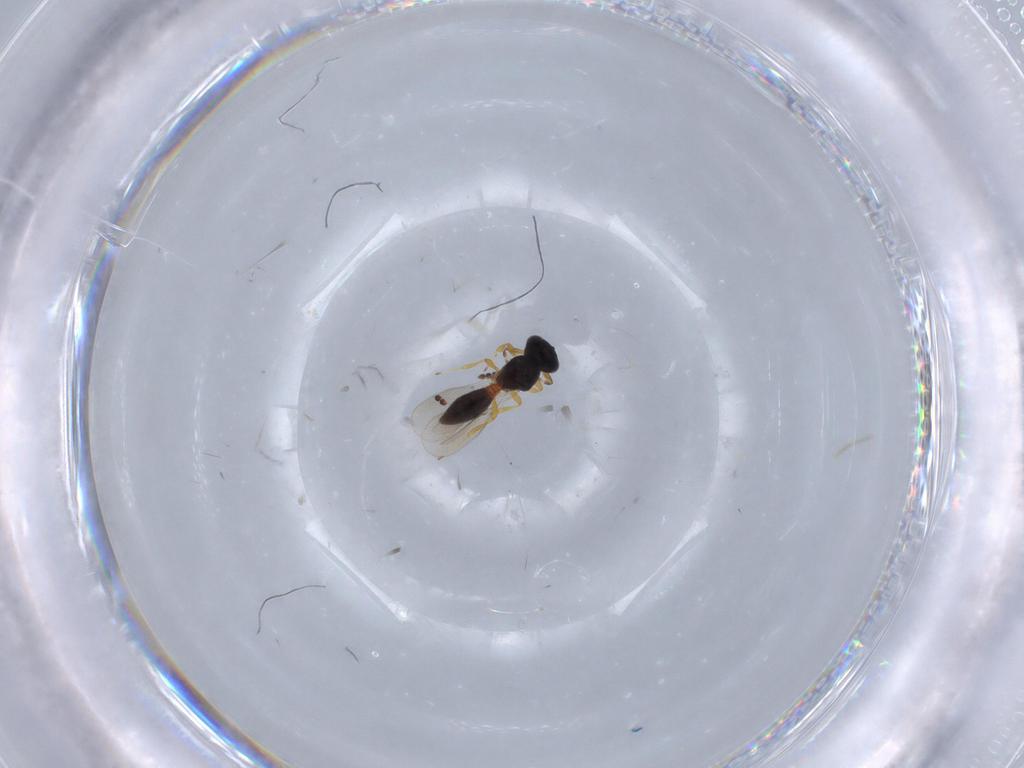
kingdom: Animalia
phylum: Arthropoda
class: Insecta
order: Hymenoptera
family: Platygastridae
